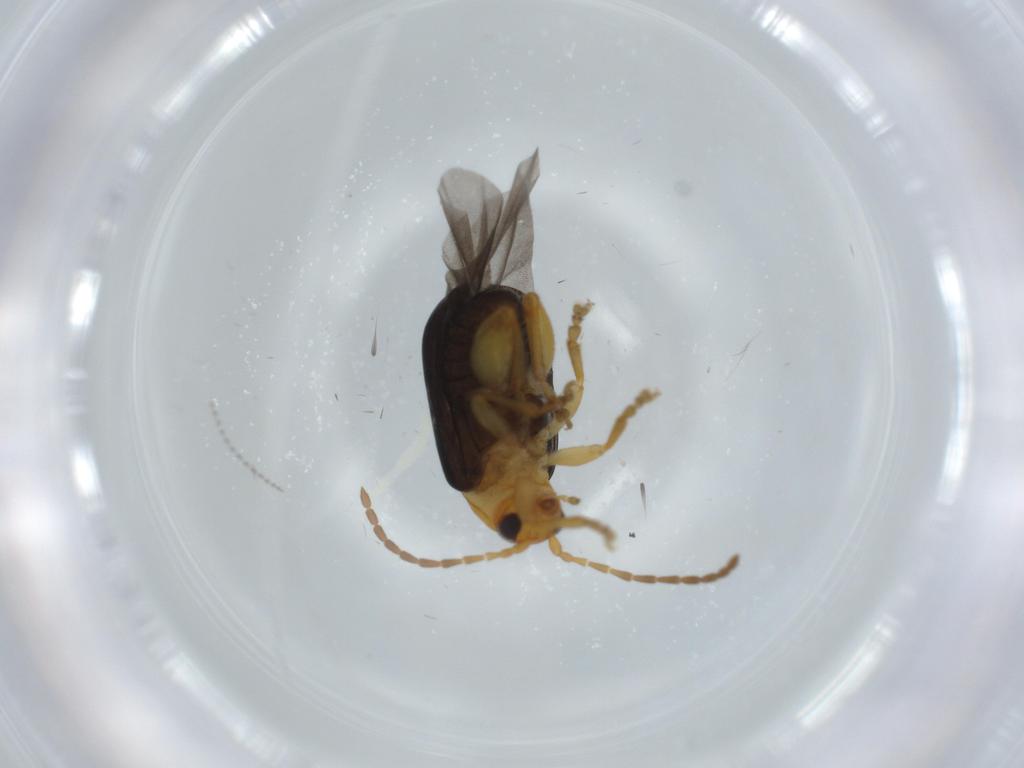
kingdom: Animalia
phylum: Arthropoda
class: Insecta
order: Coleoptera
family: Chrysomelidae
